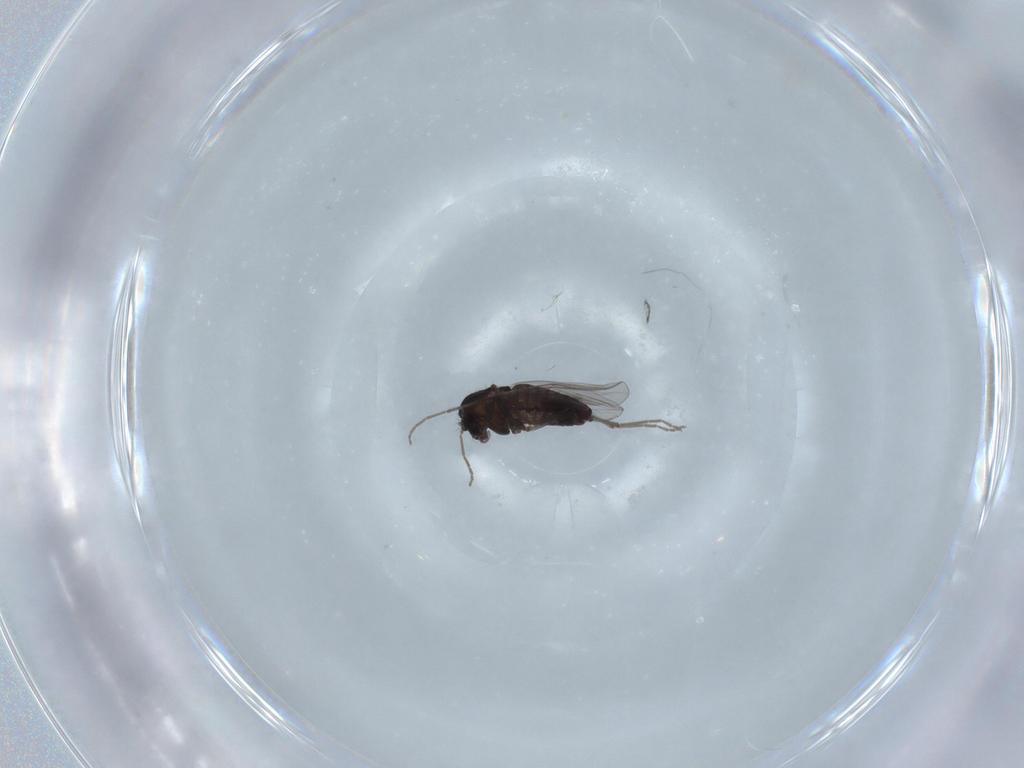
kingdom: Animalia
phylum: Arthropoda
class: Insecta
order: Diptera
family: Chironomidae
